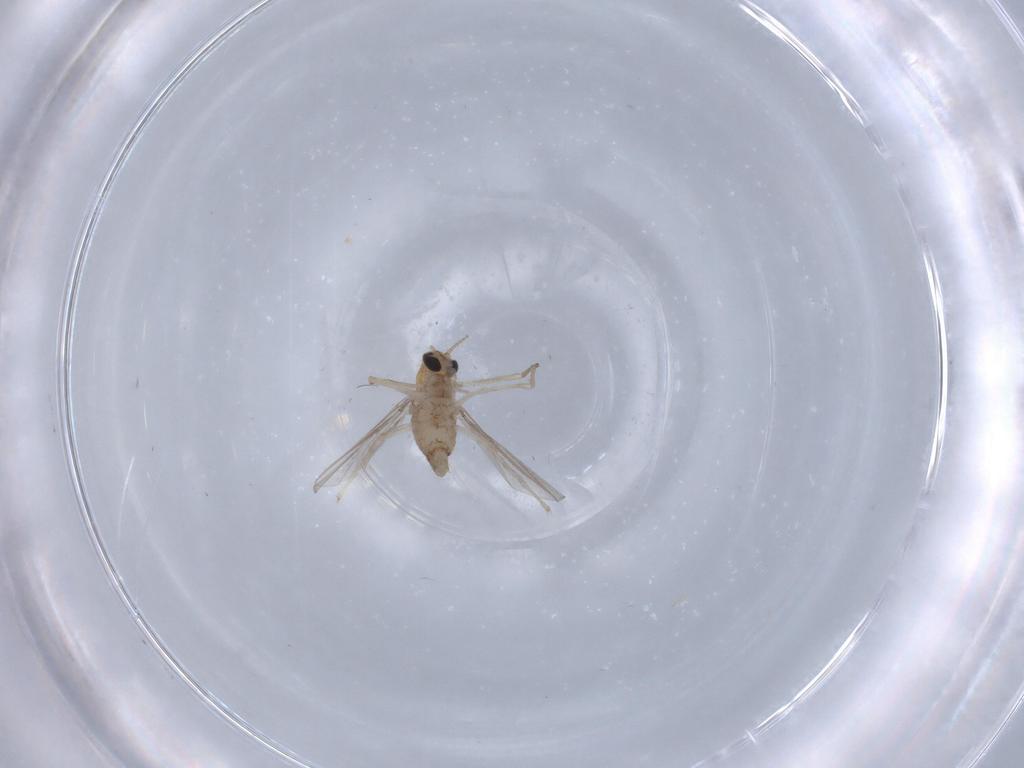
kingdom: Animalia
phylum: Arthropoda
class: Insecta
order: Diptera
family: Chironomidae
